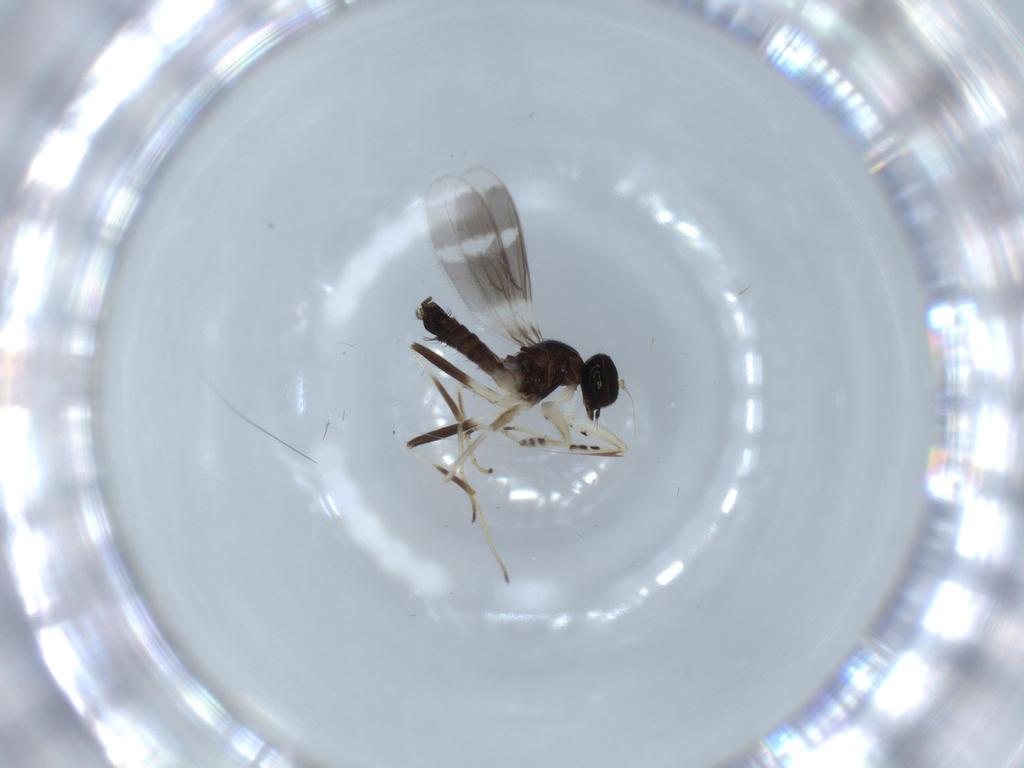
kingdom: Animalia
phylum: Arthropoda
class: Insecta
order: Diptera
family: Hybotidae
